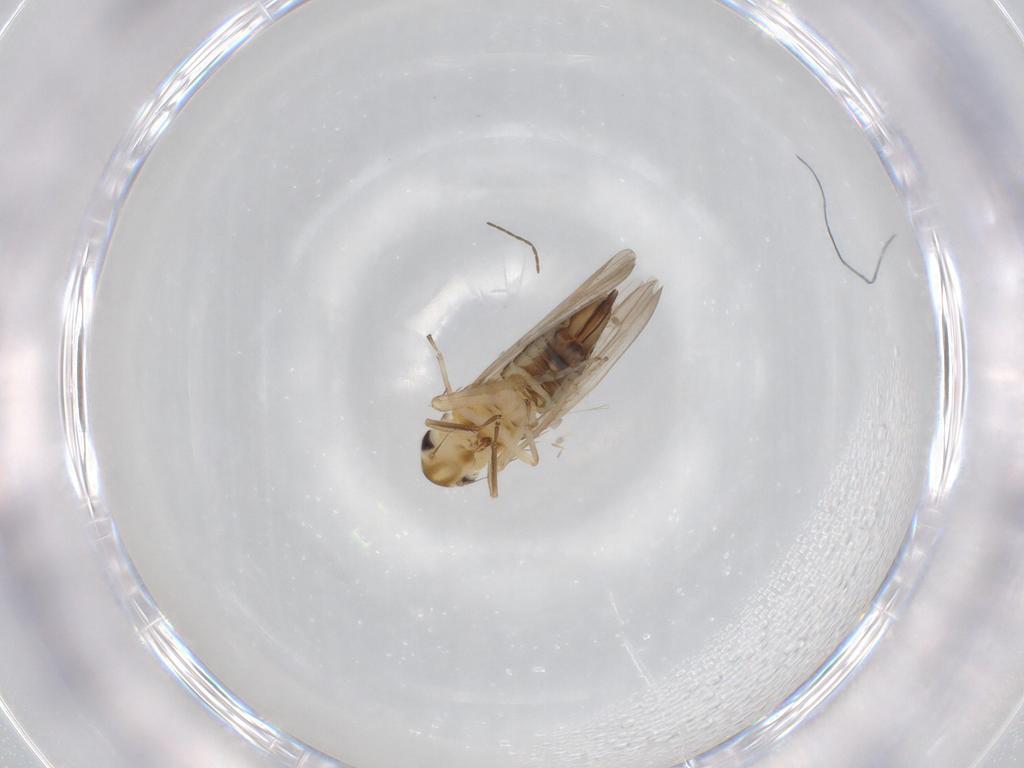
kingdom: Animalia
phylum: Arthropoda
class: Insecta
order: Hemiptera
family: Cicadellidae
